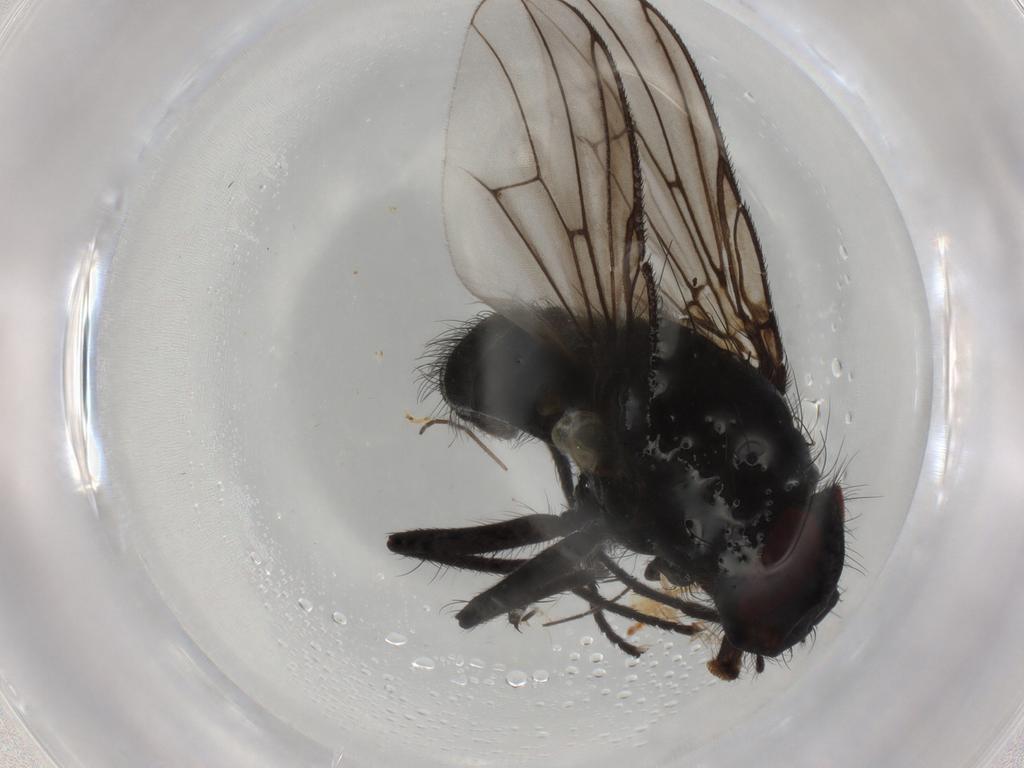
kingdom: Animalia
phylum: Arthropoda
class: Insecta
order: Diptera
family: Muscidae
